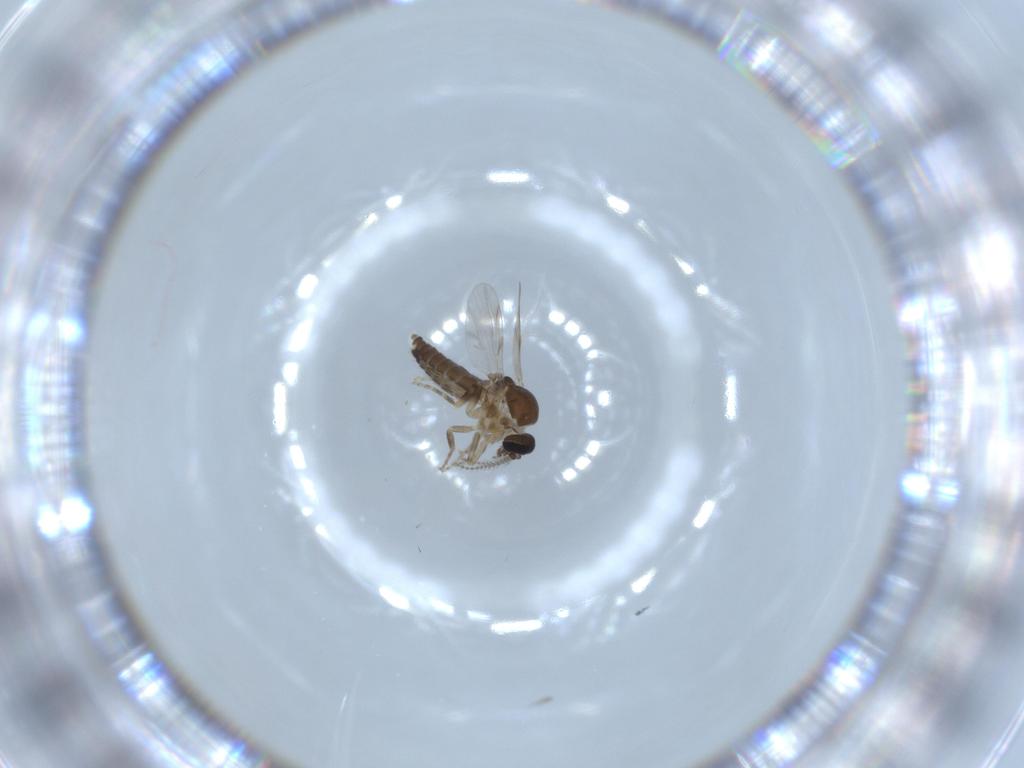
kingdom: Animalia
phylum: Arthropoda
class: Insecta
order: Diptera
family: Ceratopogonidae
